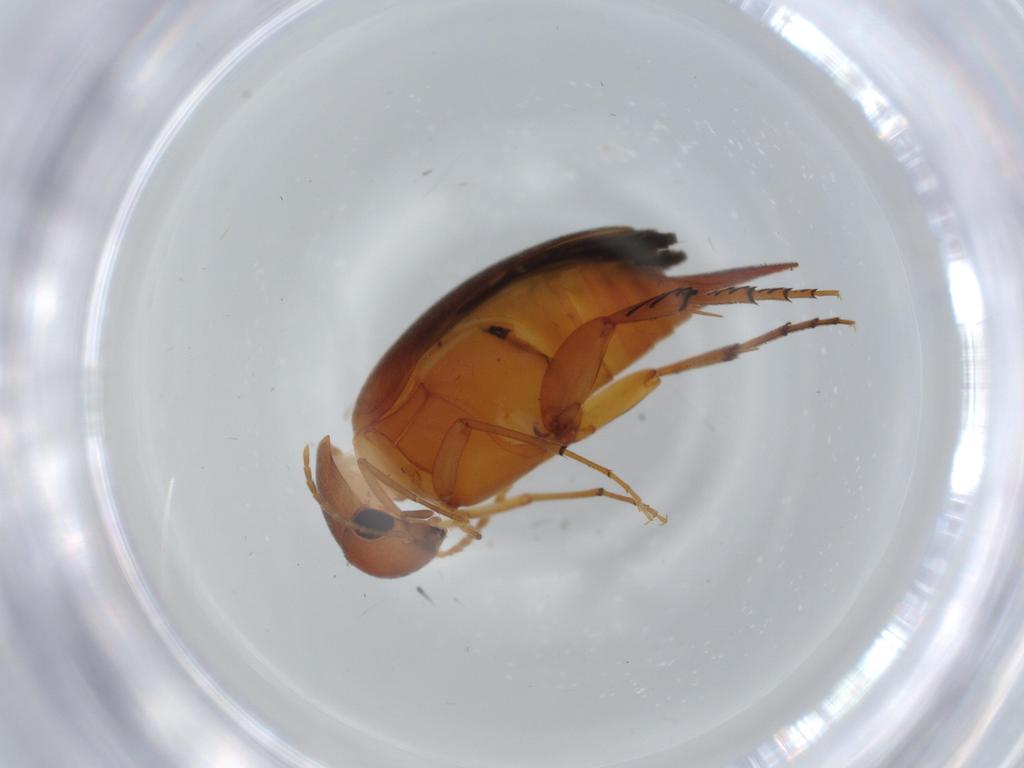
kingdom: Animalia
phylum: Arthropoda
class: Insecta
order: Coleoptera
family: Mordellidae
